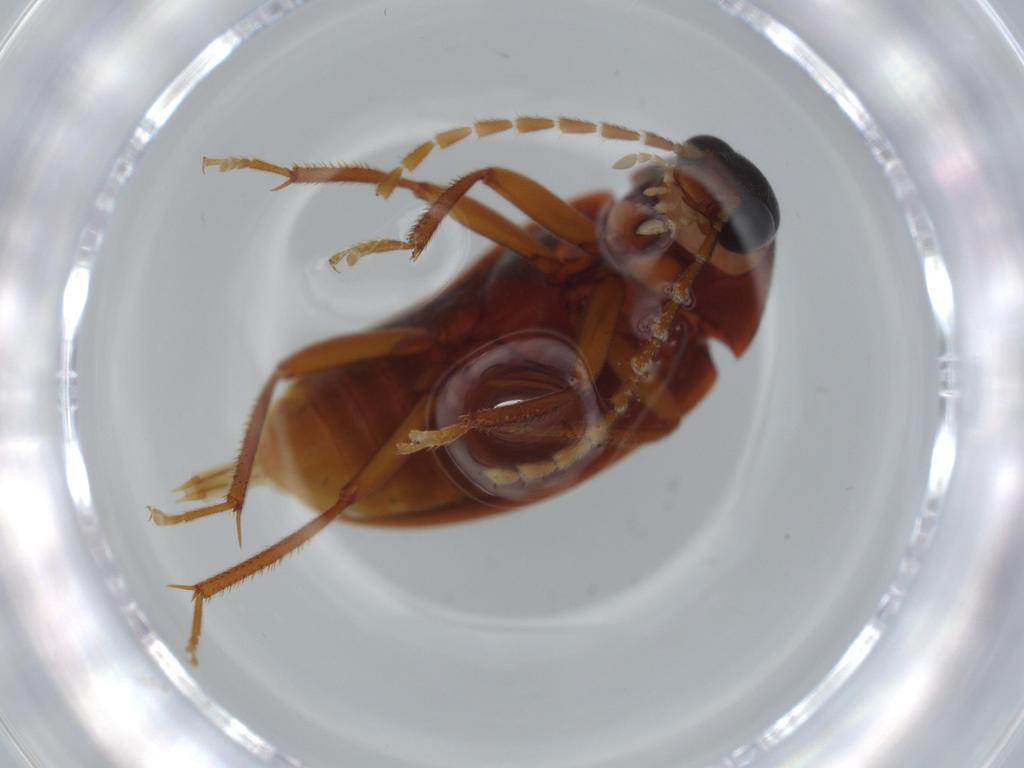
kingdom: Animalia
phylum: Arthropoda
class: Insecta
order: Coleoptera
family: Ptilodactylidae
